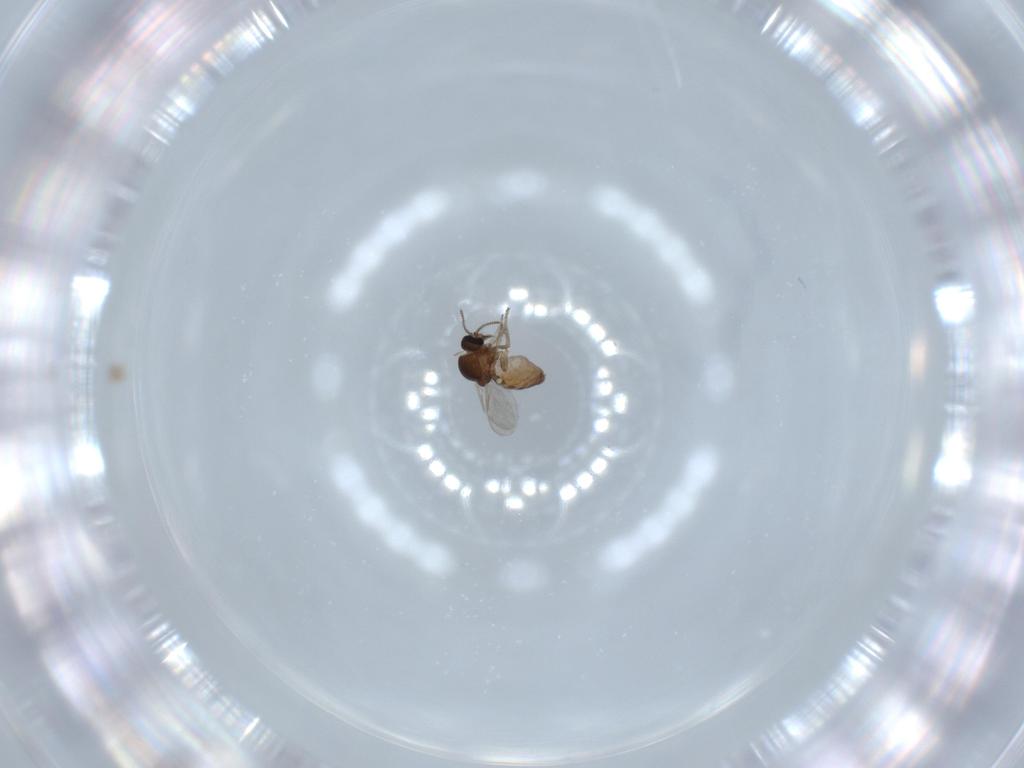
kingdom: Animalia
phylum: Arthropoda
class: Insecta
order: Diptera
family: Ceratopogonidae
